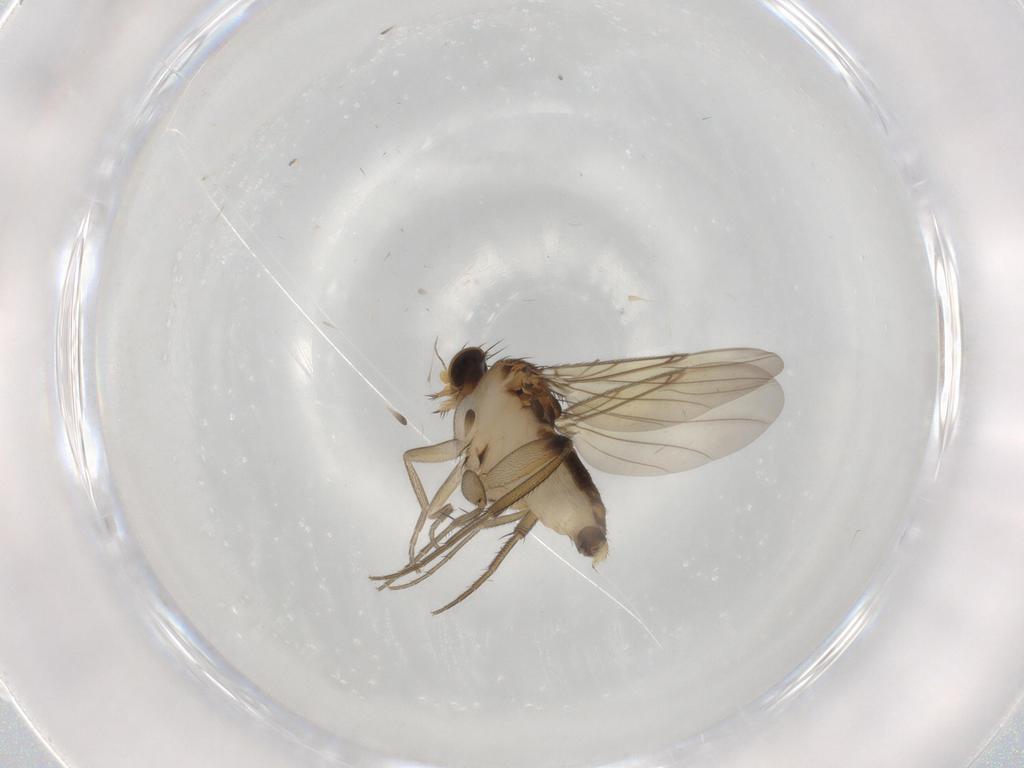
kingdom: Animalia
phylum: Arthropoda
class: Insecta
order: Diptera
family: Phoridae
